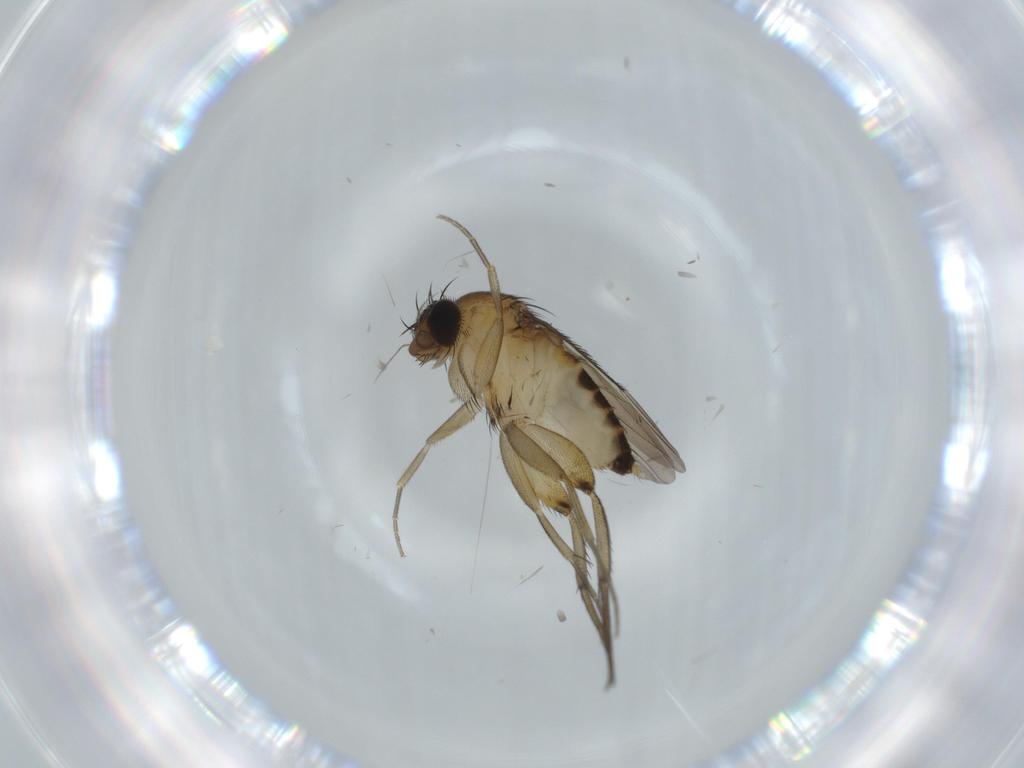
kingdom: Animalia
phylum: Arthropoda
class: Insecta
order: Diptera
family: Phoridae
